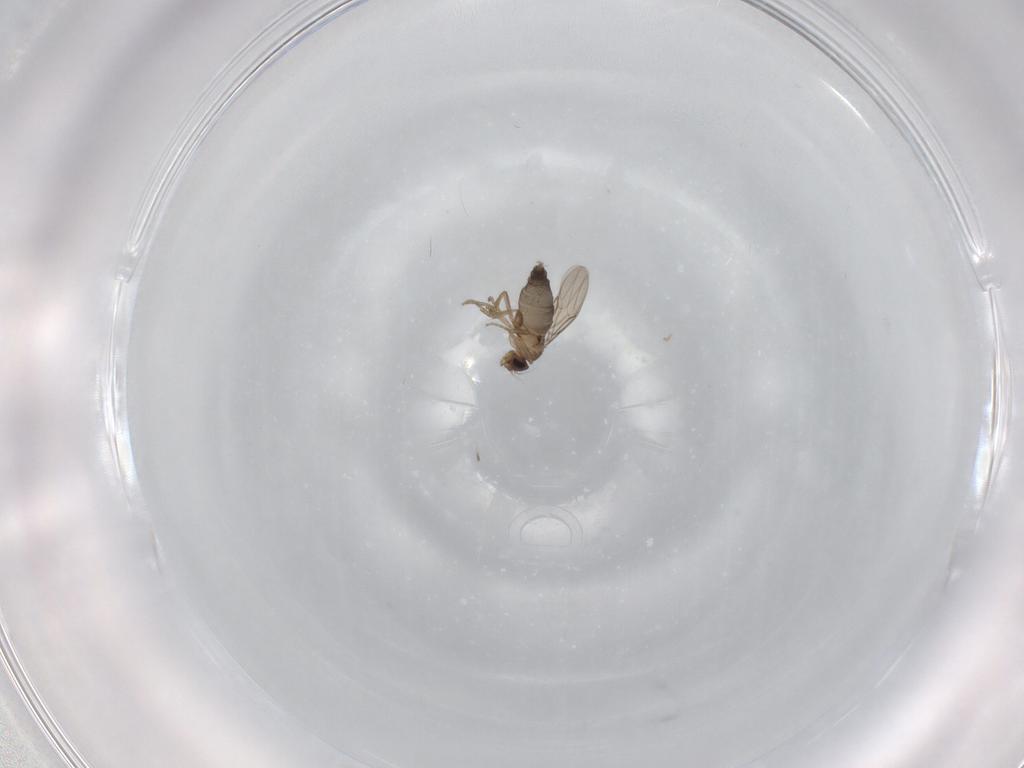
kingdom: Animalia
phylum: Arthropoda
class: Insecta
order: Diptera
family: Phoridae
